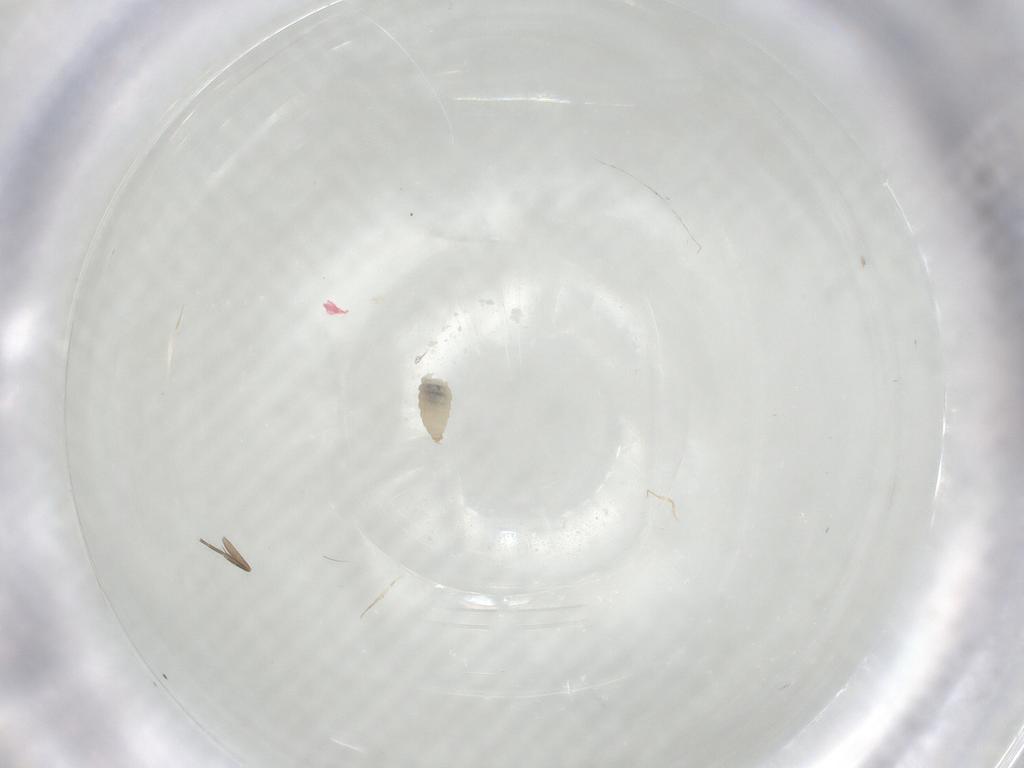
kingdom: Animalia
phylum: Arthropoda
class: Insecta
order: Diptera
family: Phoridae
